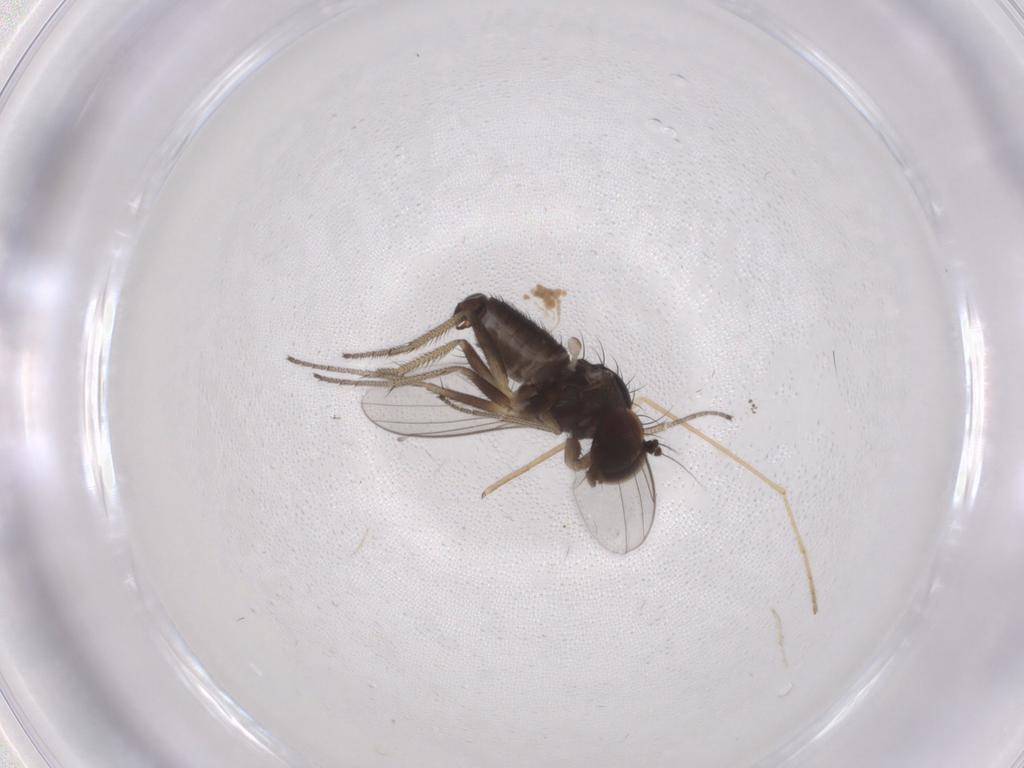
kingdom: Animalia
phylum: Arthropoda
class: Insecta
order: Diptera
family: Dolichopodidae
